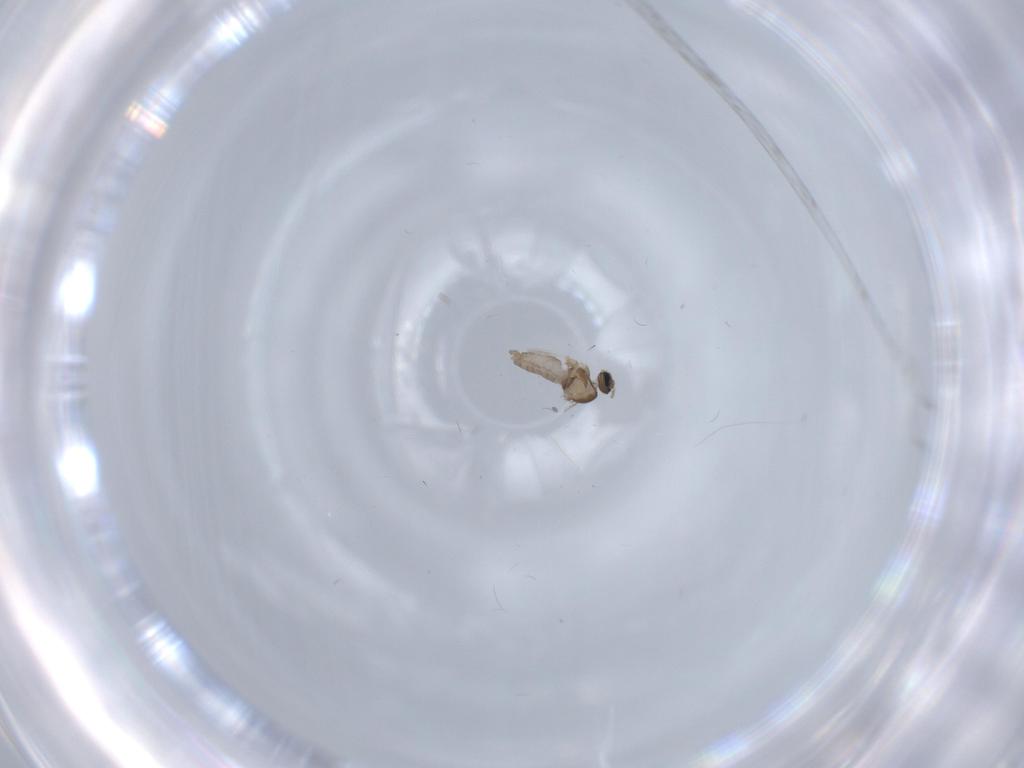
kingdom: Animalia
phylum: Arthropoda
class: Insecta
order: Diptera
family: Cecidomyiidae
